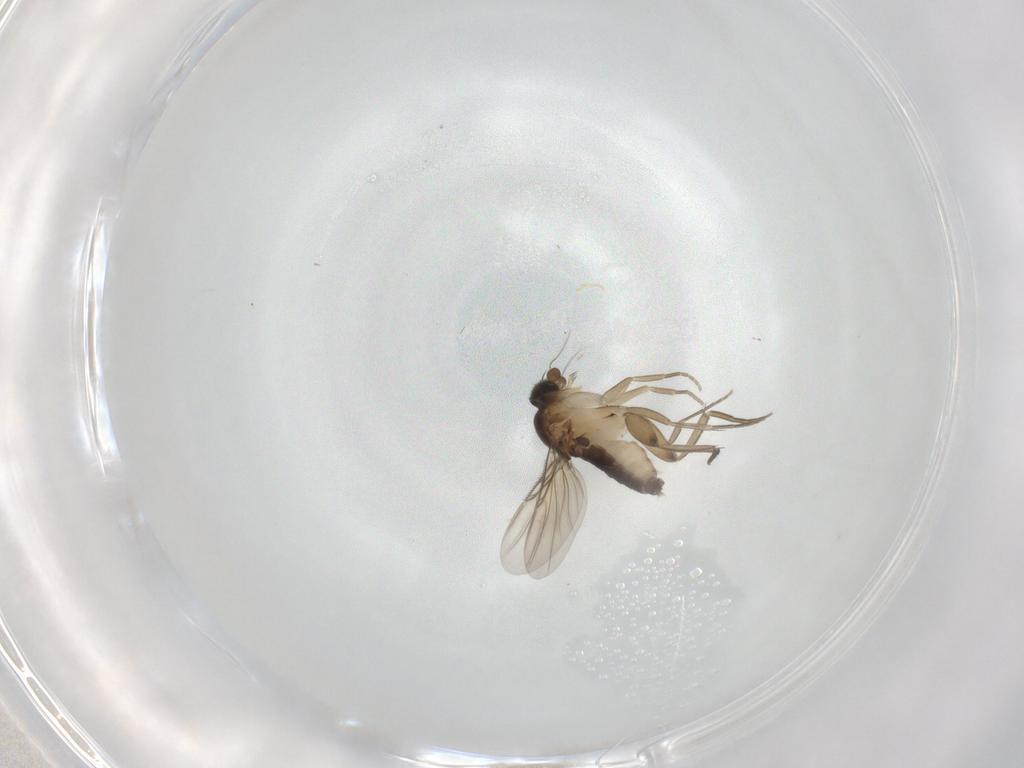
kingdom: Animalia
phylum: Arthropoda
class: Insecta
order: Diptera
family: Phoridae
